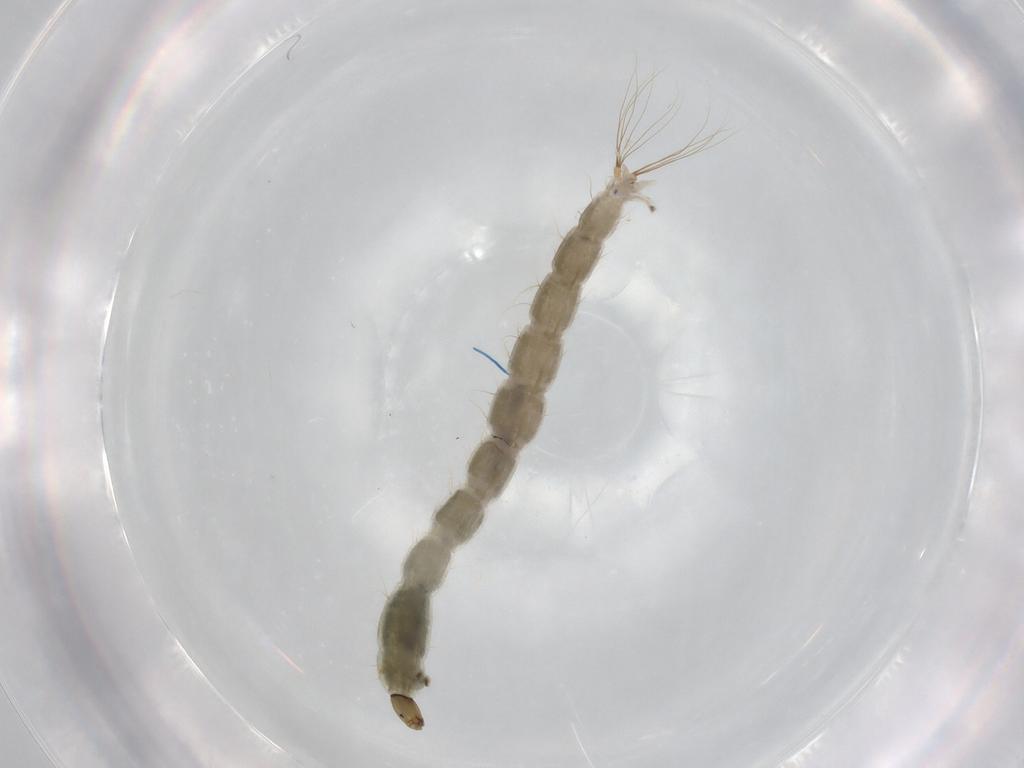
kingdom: Animalia
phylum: Arthropoda
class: Insecta
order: Diptera
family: Chironomidae
